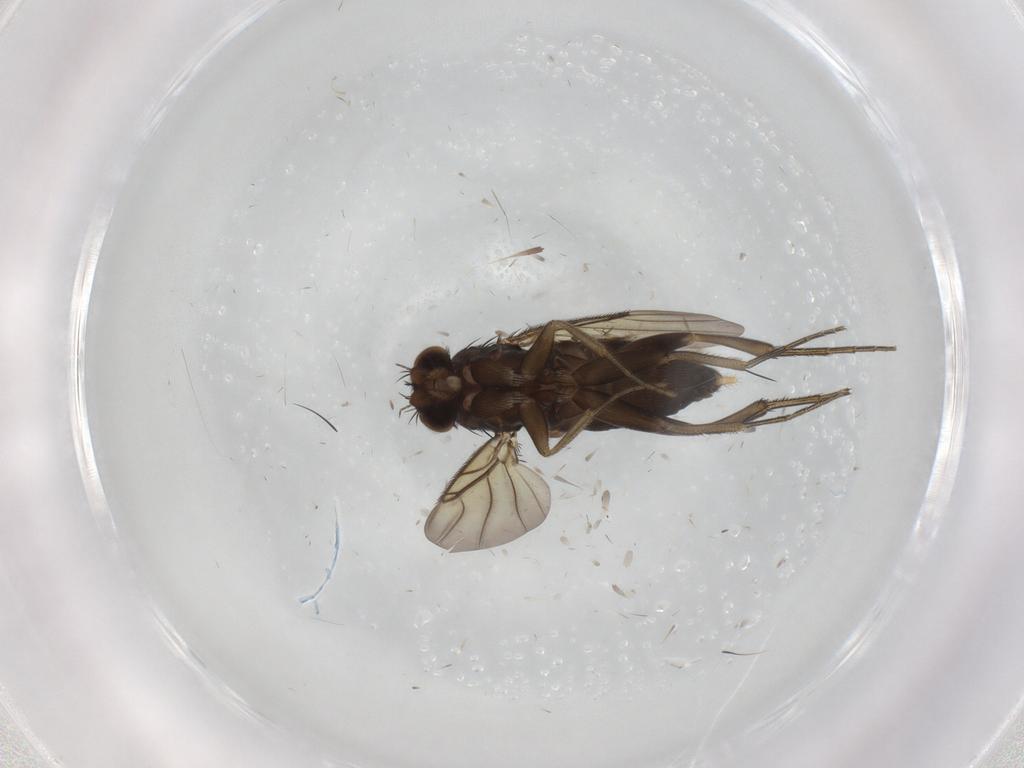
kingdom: Animalia
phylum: Arthropoda
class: Insecta
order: Diptera
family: Phoridae
